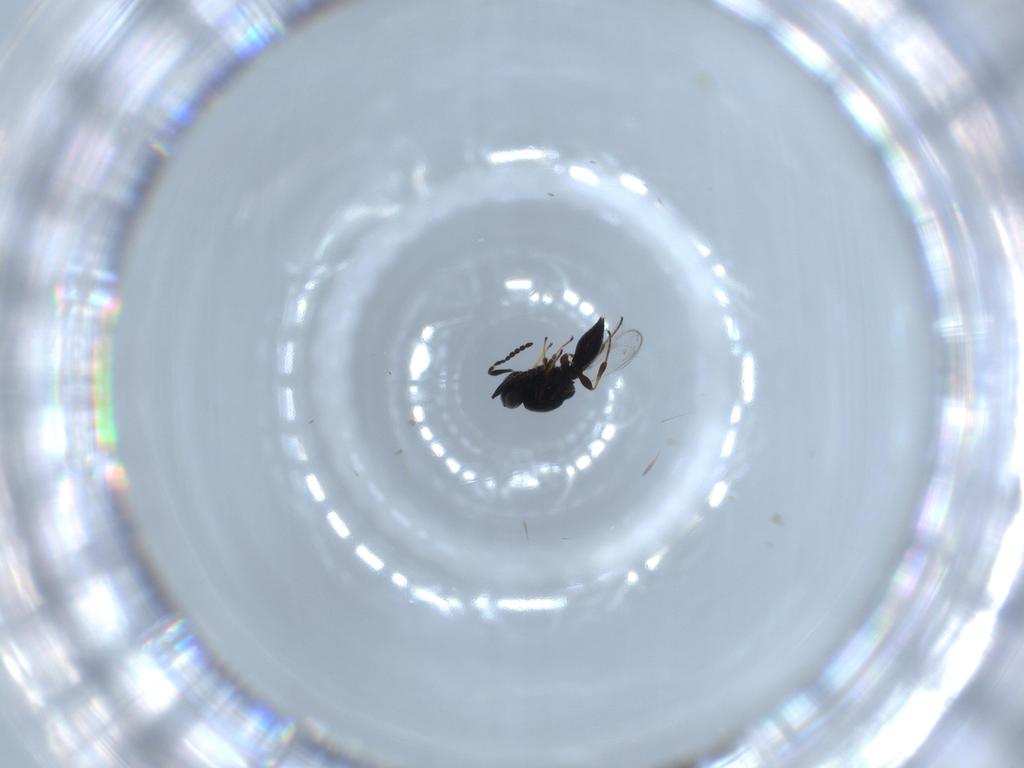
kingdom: Animalia
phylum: Arthropoda
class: Insecta
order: Hymenoptera
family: Platygastridae
